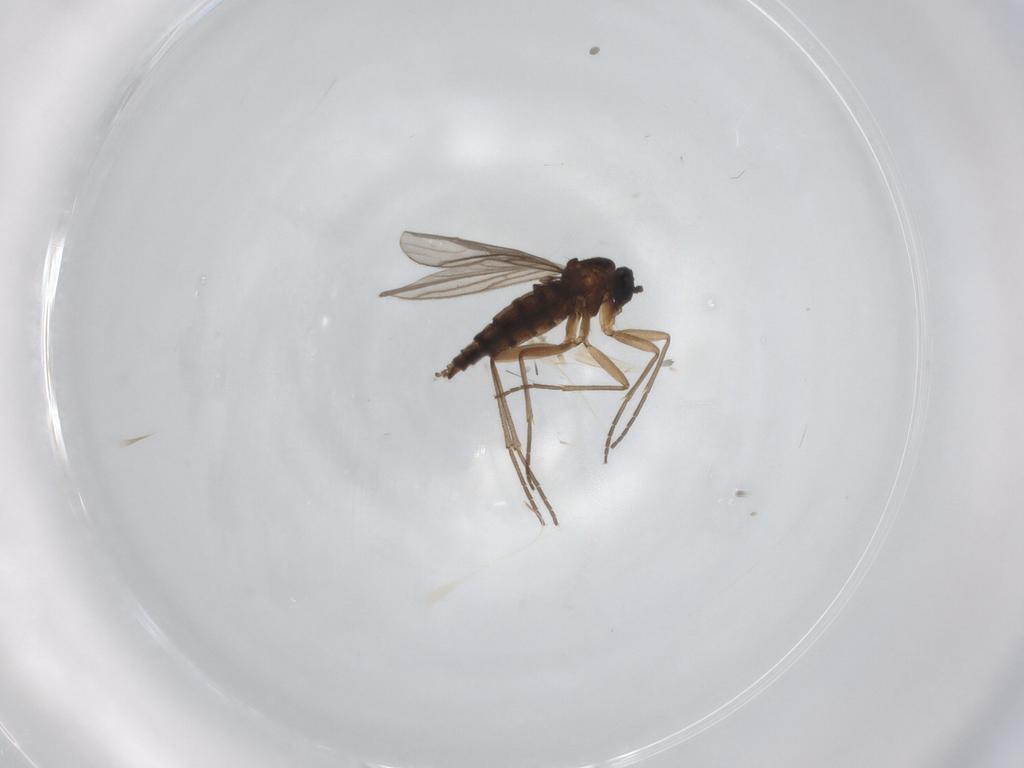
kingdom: Animalia
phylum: Arthropoda
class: Insecta
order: Diptera
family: Sciaridae
